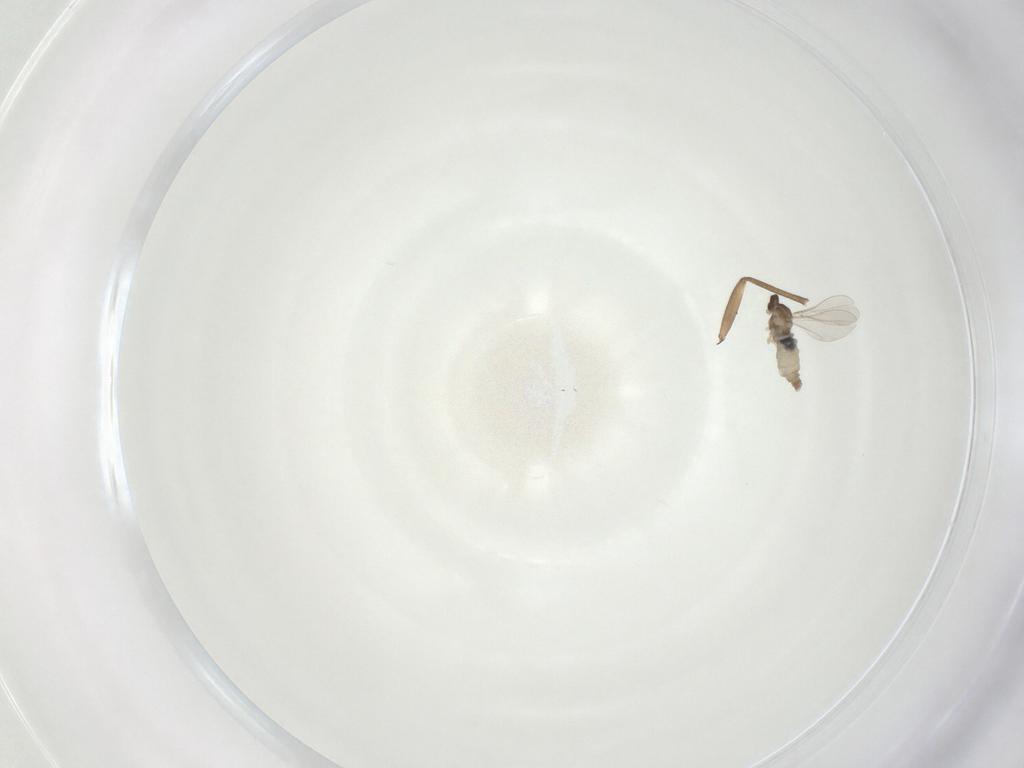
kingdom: Animalia
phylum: Arthropoda
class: Insecta
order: Diptera
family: Sciaridae
